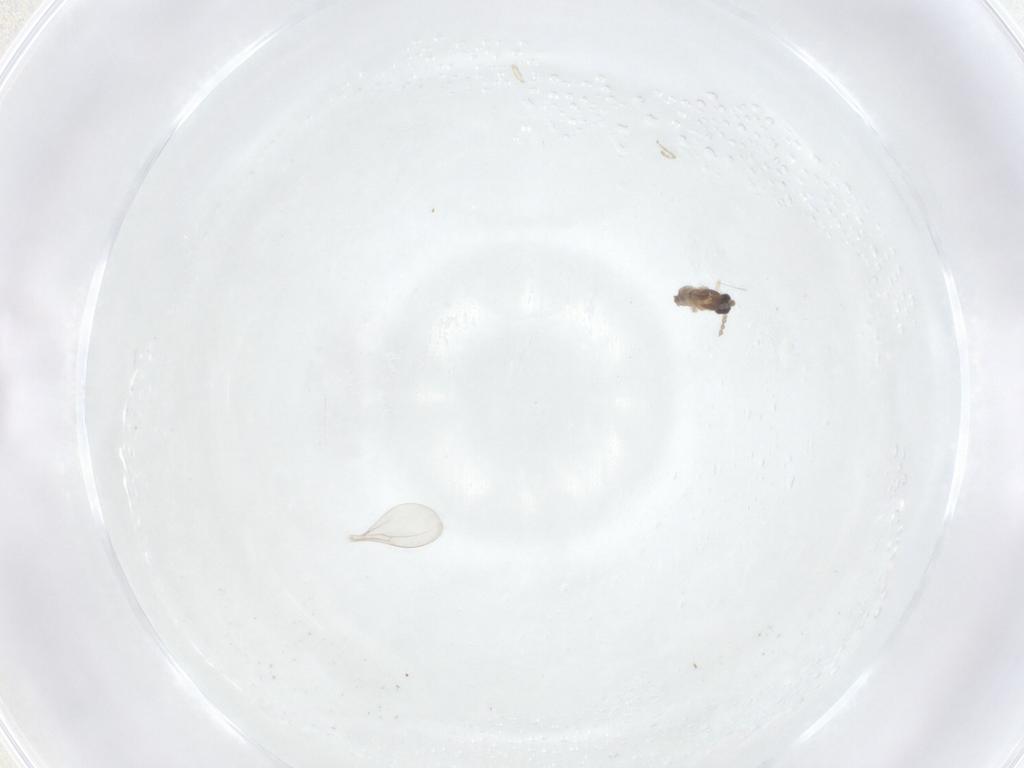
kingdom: Animalia
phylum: Arthropoda
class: Insecta
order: Diptera
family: Cecidomyiidae
